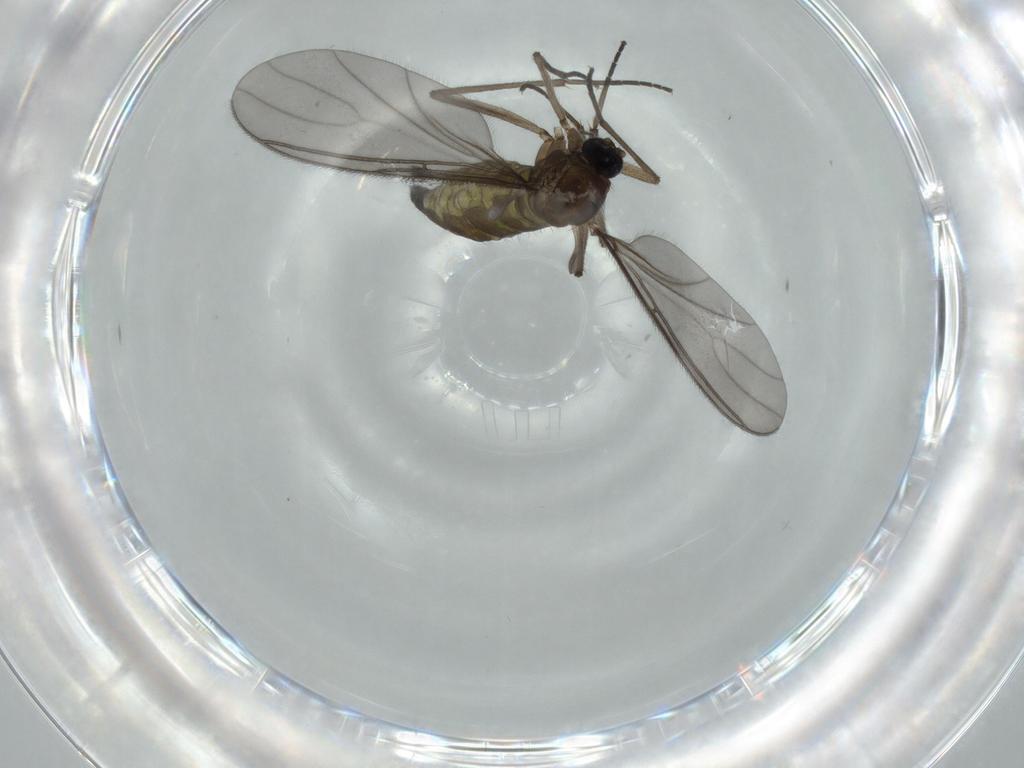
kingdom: Animalia
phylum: Arthropoda
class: Insecta
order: Diptera
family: Sciaridae
